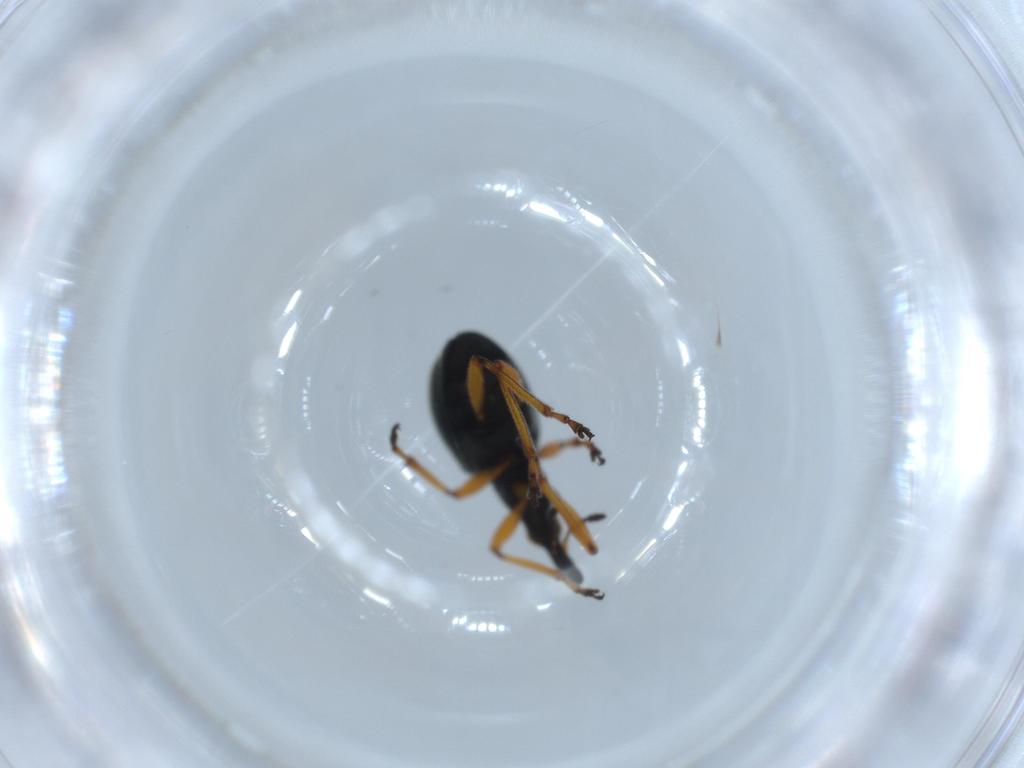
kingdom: Animalia
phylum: Arthropoda
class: Insecta
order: Coleoptera
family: Brentidae
